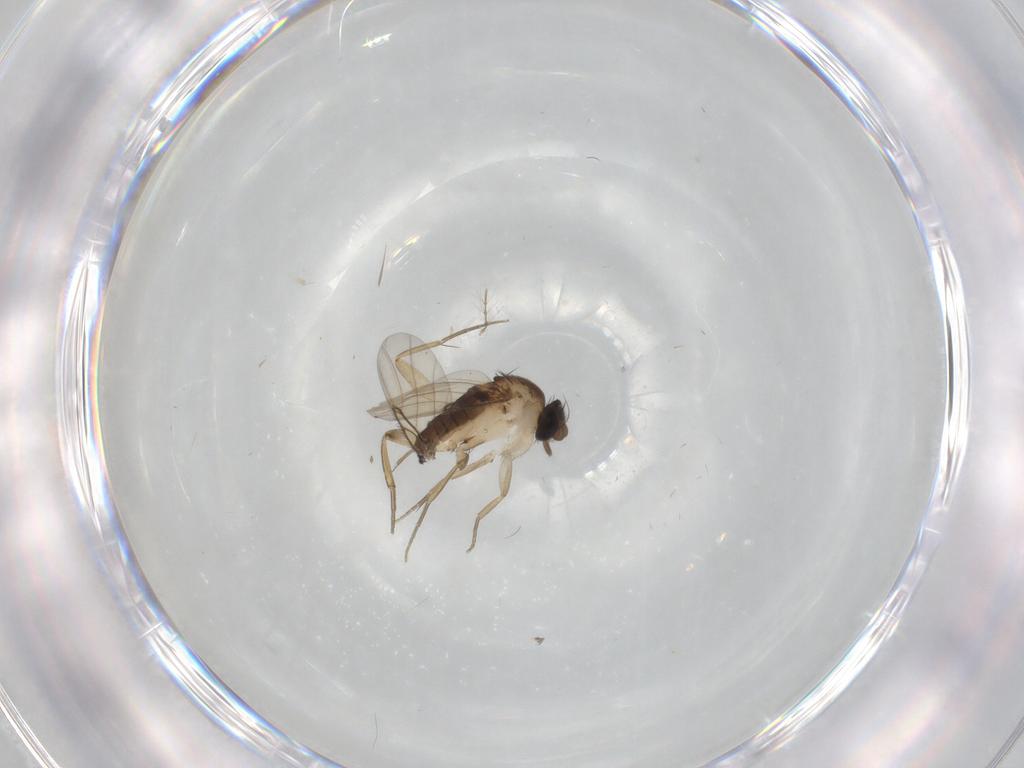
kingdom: Animalia
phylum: Arthropoda
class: Insecta
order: Diptera
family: Phoridae
